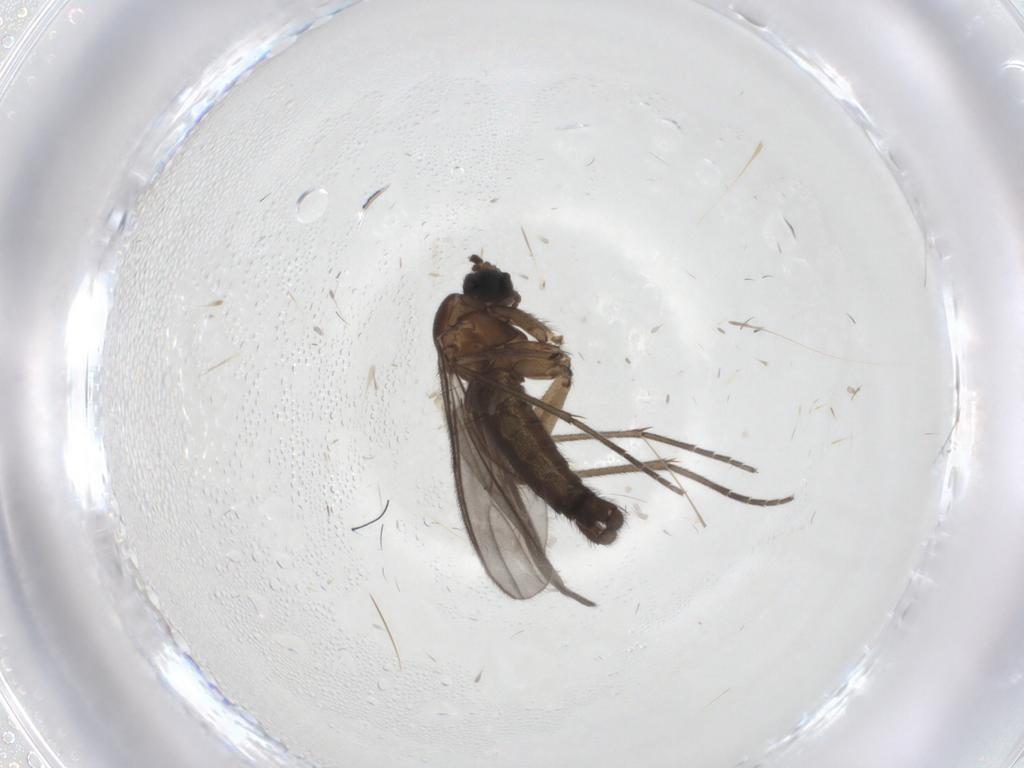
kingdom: Animalia
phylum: Arthropoda
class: Insecta
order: Diptera
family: Sciaridae
